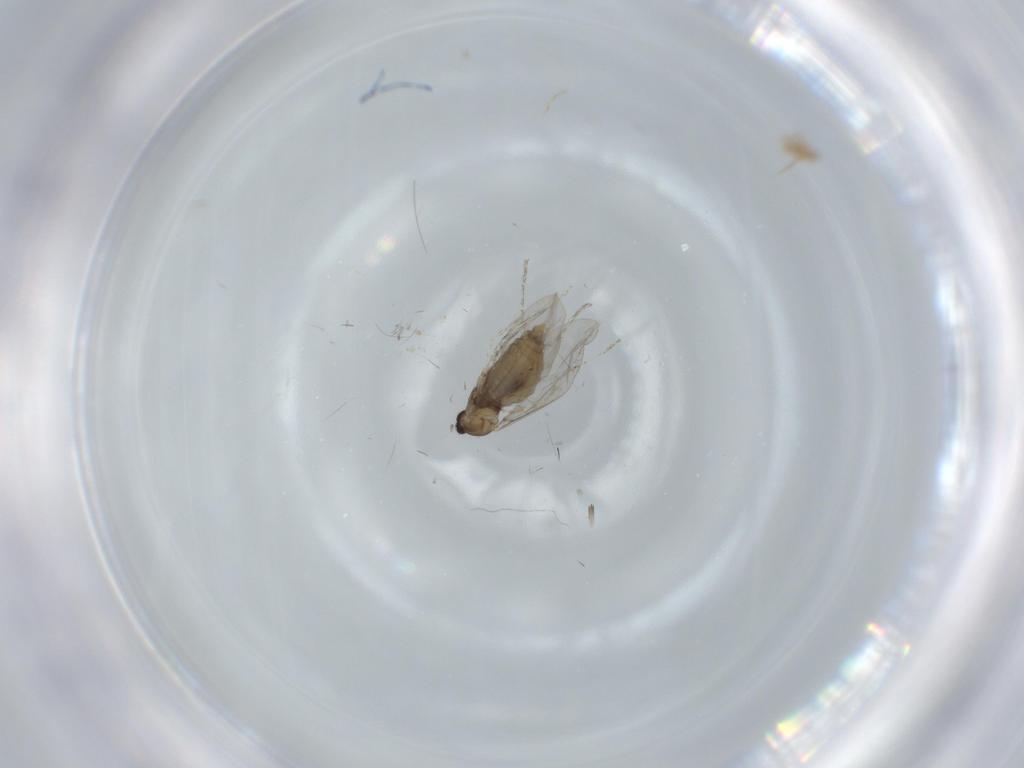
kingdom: Animalia
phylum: Arthropoda
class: Insecta
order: Diptera
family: Cecidomyiidae
